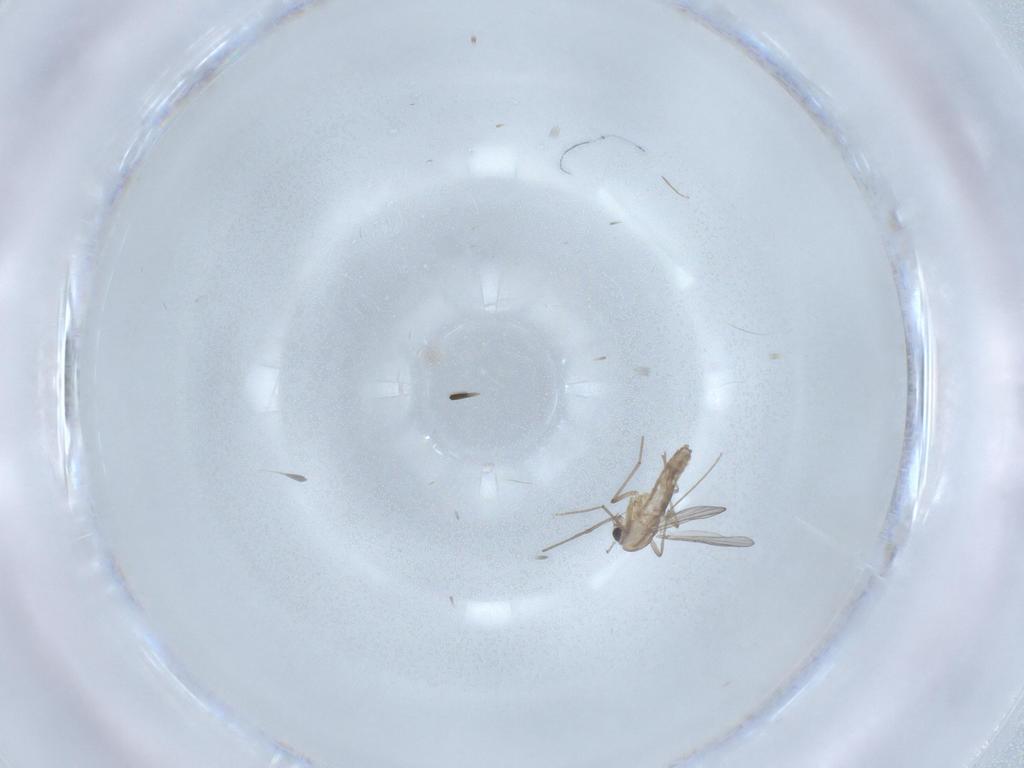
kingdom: Animalia
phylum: Arthropoda
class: Insecta
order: Diptera
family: Chironomidae
